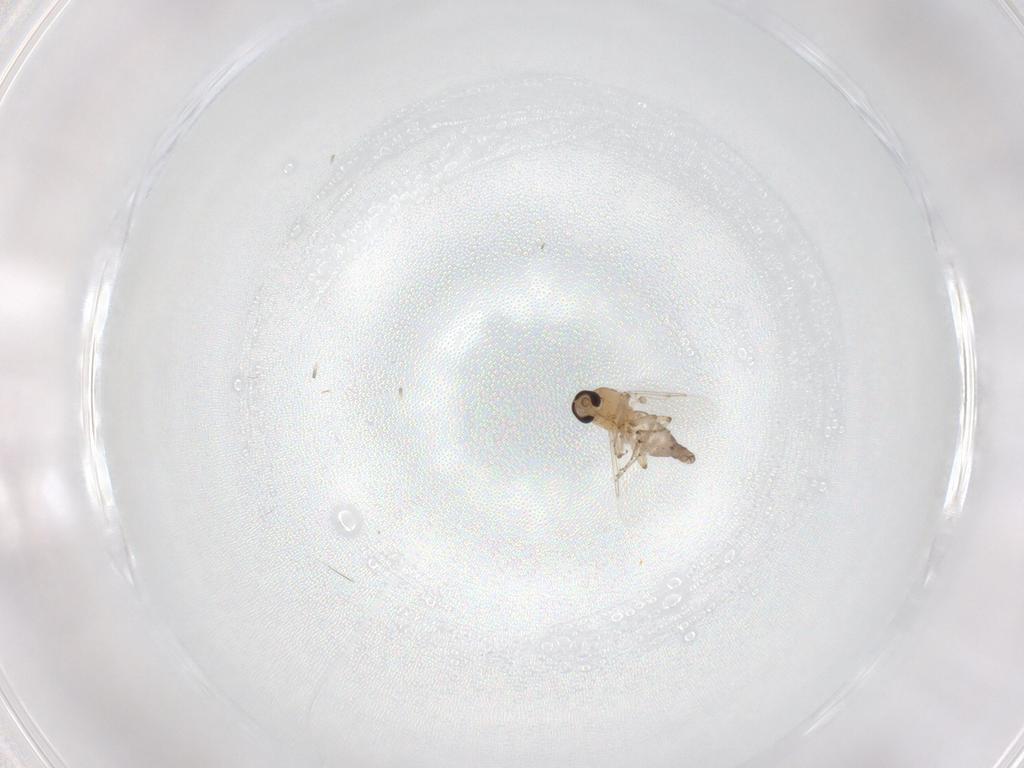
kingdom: Animalia
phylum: Arthropoda
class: Insecta
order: Diptera
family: Ceratopogonidae
